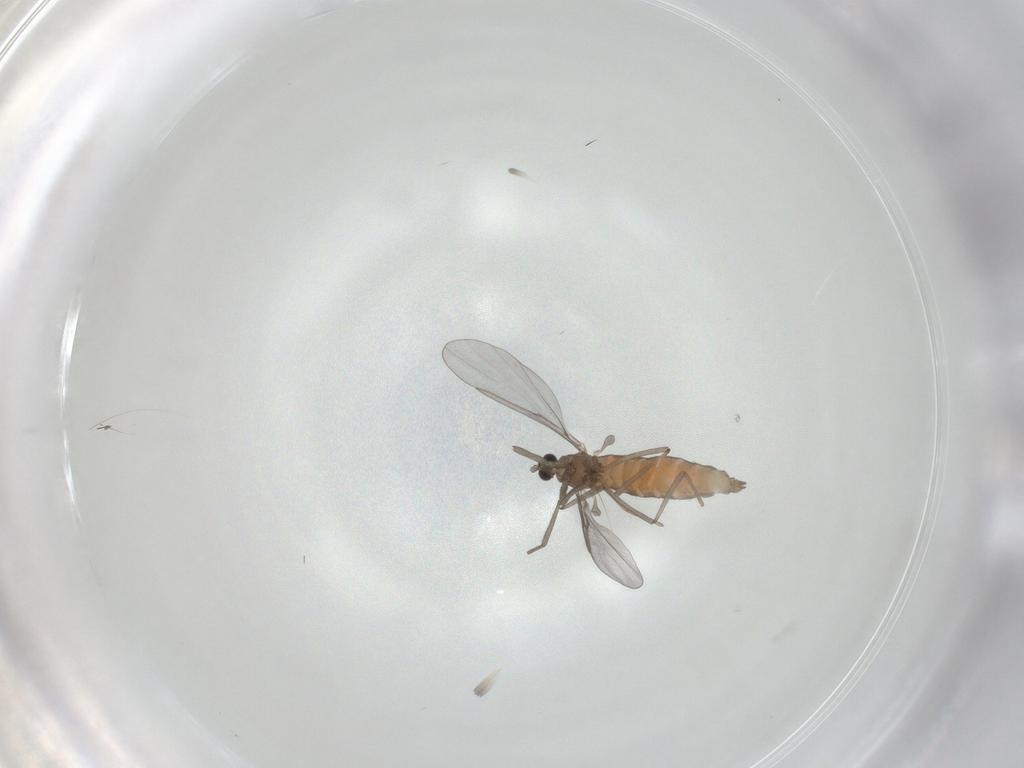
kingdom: Animalia
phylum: Arthropoda
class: Insecta
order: Diptera
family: Cecidomyiidae
